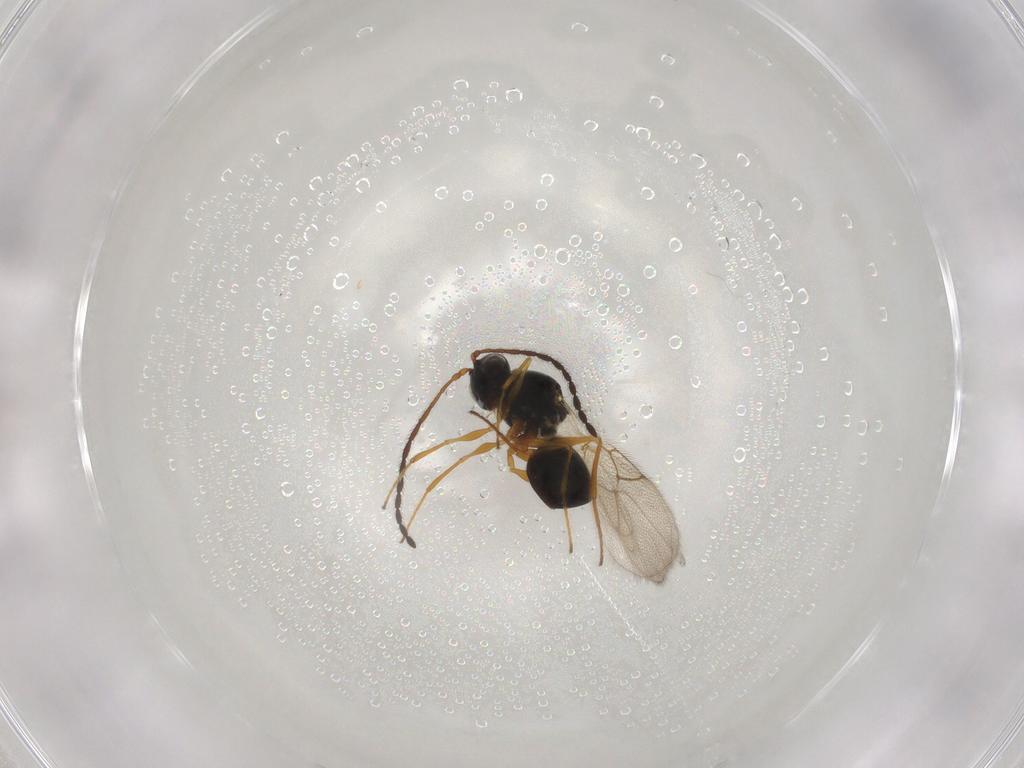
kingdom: Animalia
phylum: Arthropoda
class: Insecta
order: Hymenoptera
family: Figitidae
